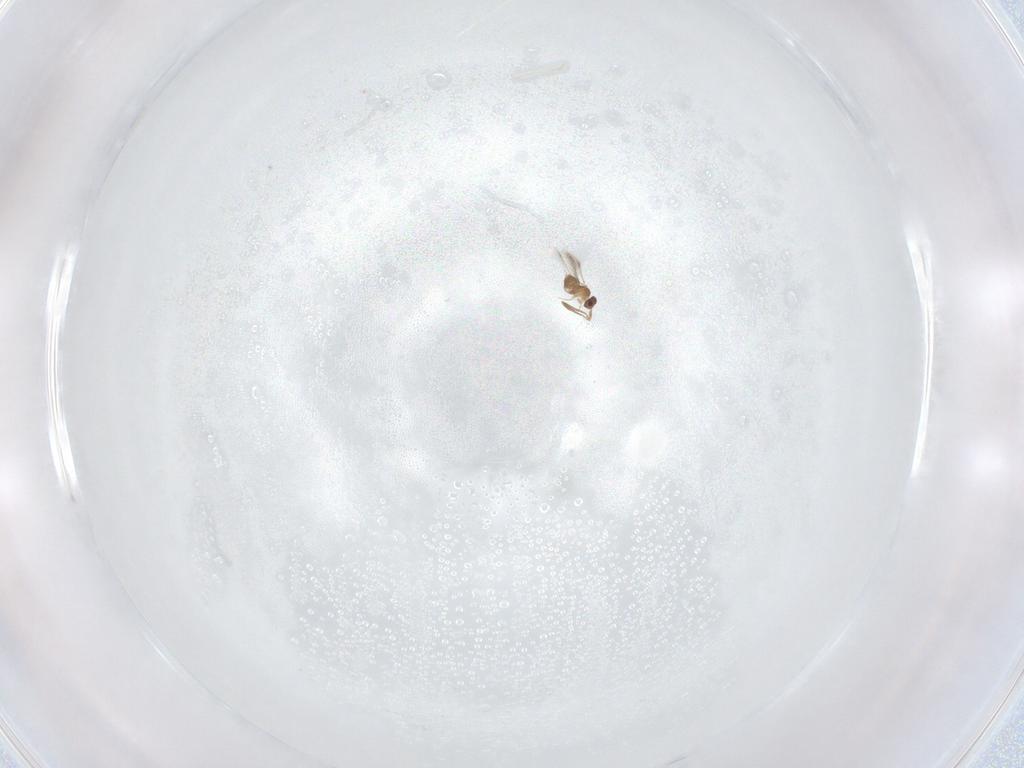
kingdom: Animalia
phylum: Arthropoda
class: Insecta
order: Hymenoptera
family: Scelionidae
